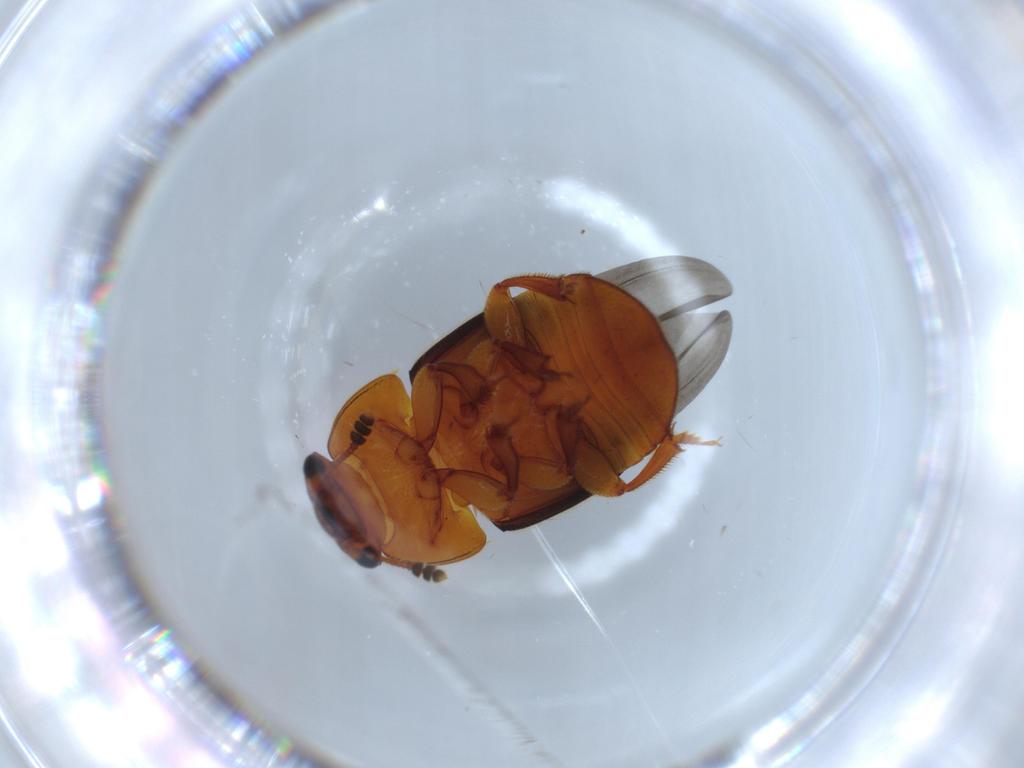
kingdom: Animalia
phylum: Arthropoda
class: Insecta
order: Coleoptera
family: Nitidulidae
